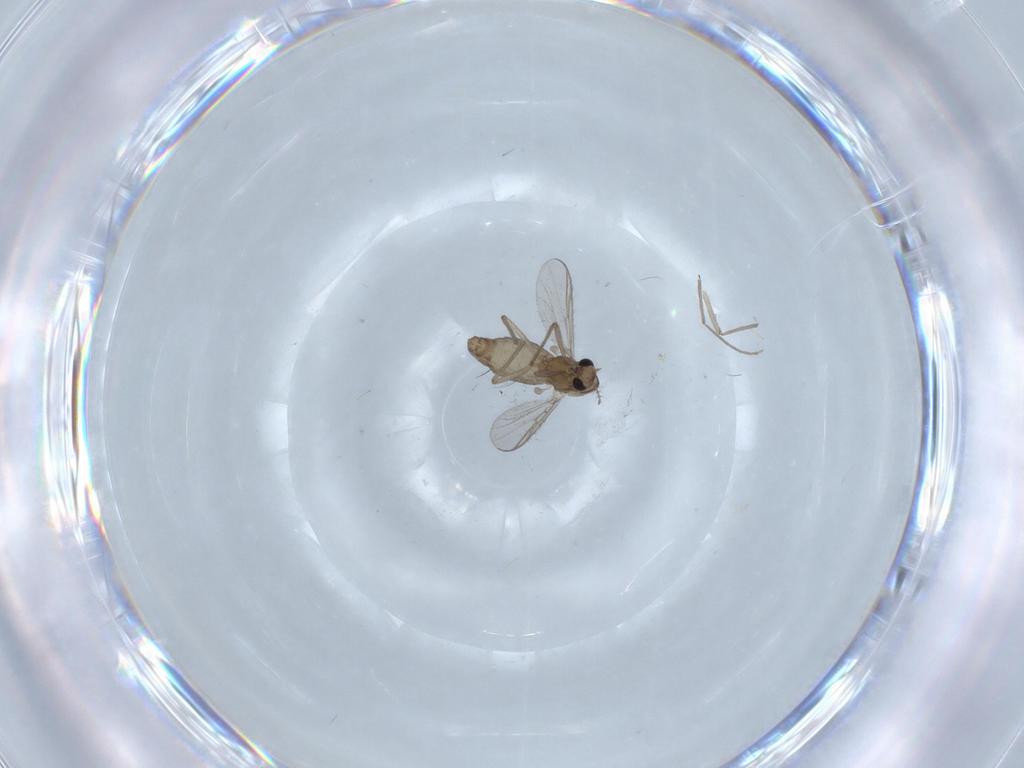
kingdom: Animalia
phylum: Arthropoda
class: Insecta
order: Diptera
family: Chironomidae
